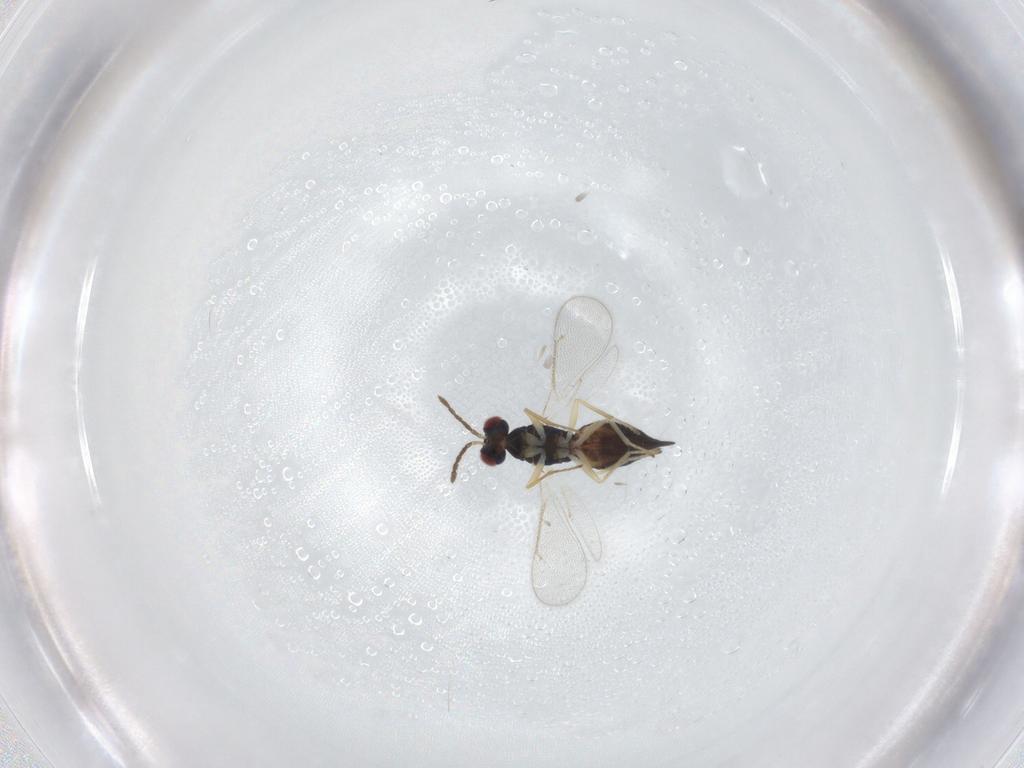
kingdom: Animalia
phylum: Arthropoda
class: Insecta
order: Hymenoptera
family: Eulophidae
